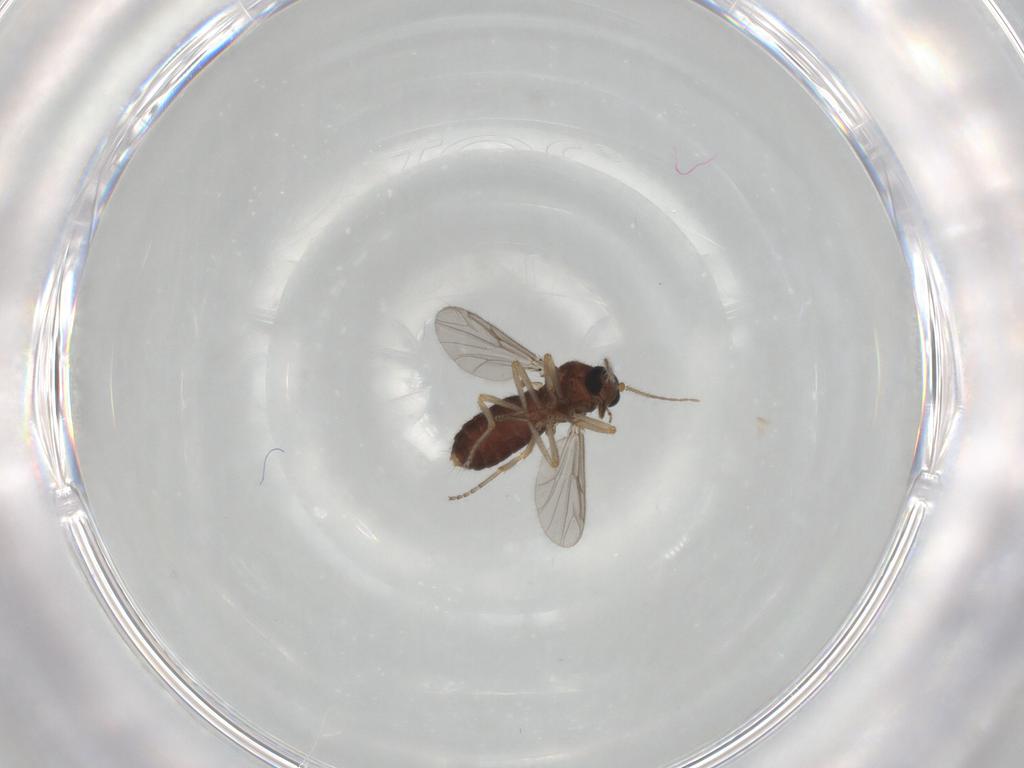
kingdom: Animalia
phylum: Arthropoda
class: Insecta
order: Diptera
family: Ceratopogonidae
